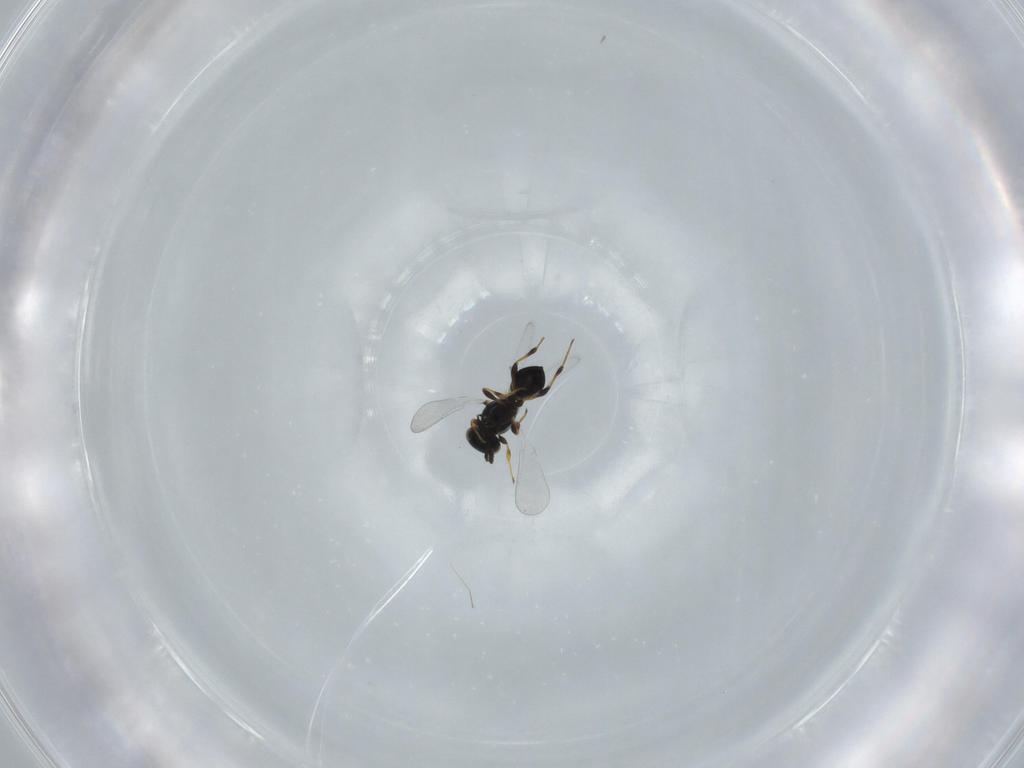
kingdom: Animalia
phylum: Arthropoda
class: Insecta
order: Hymenoptera
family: Platygastridae
